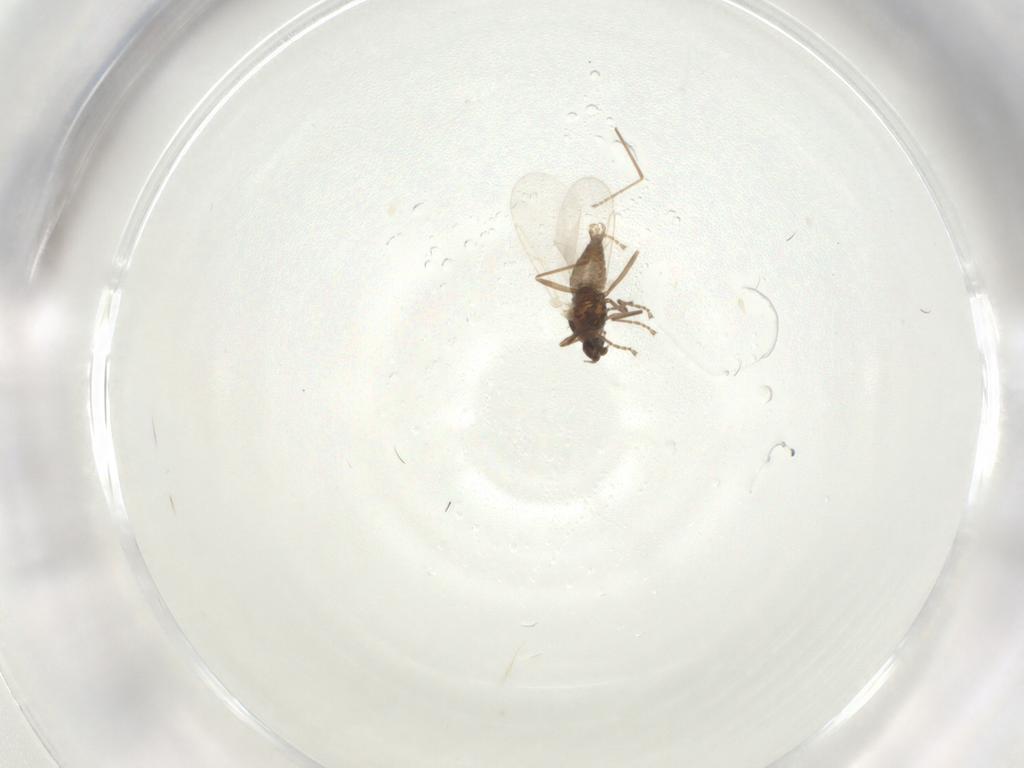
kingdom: Animalia
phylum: Arthropoda
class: Insecta
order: Diptera
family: Cecidomyiidae
